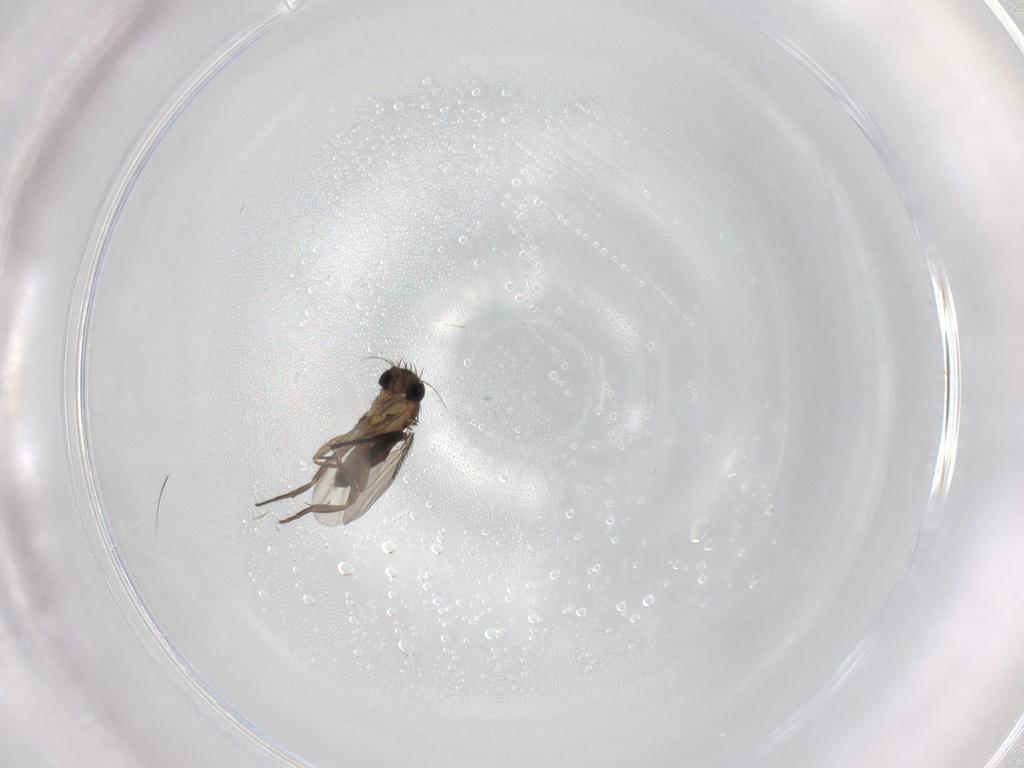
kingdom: Animalia
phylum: Arthropoda
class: Insecta
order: Diptera
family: Phoridae
